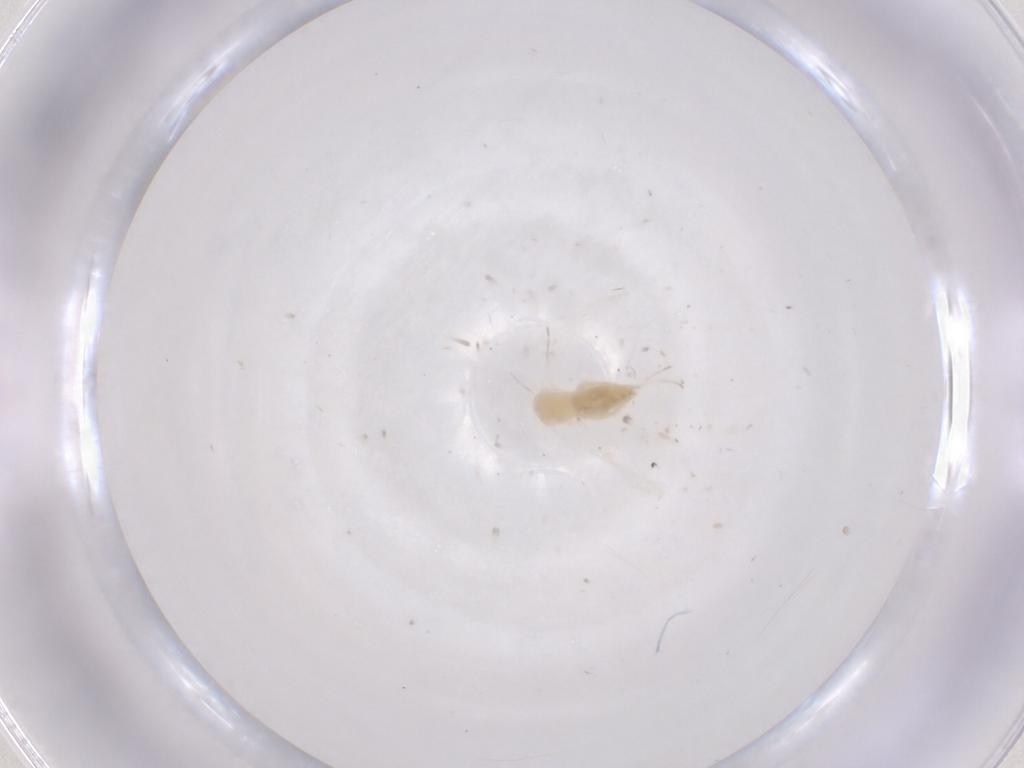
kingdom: Animalia
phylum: Arthropoda
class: Insecta
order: Hemiptera
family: Aleyrodidae
